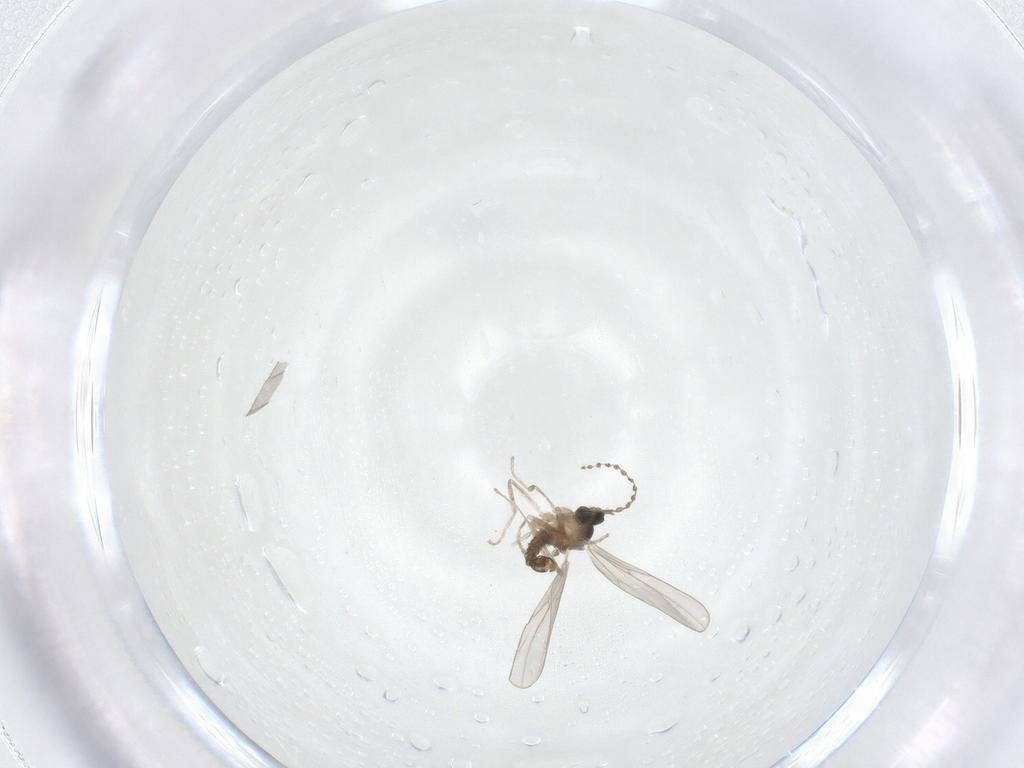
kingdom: Animalia
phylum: Arthropoda
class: Insecta
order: Diptera
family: Cecidomyiidae
